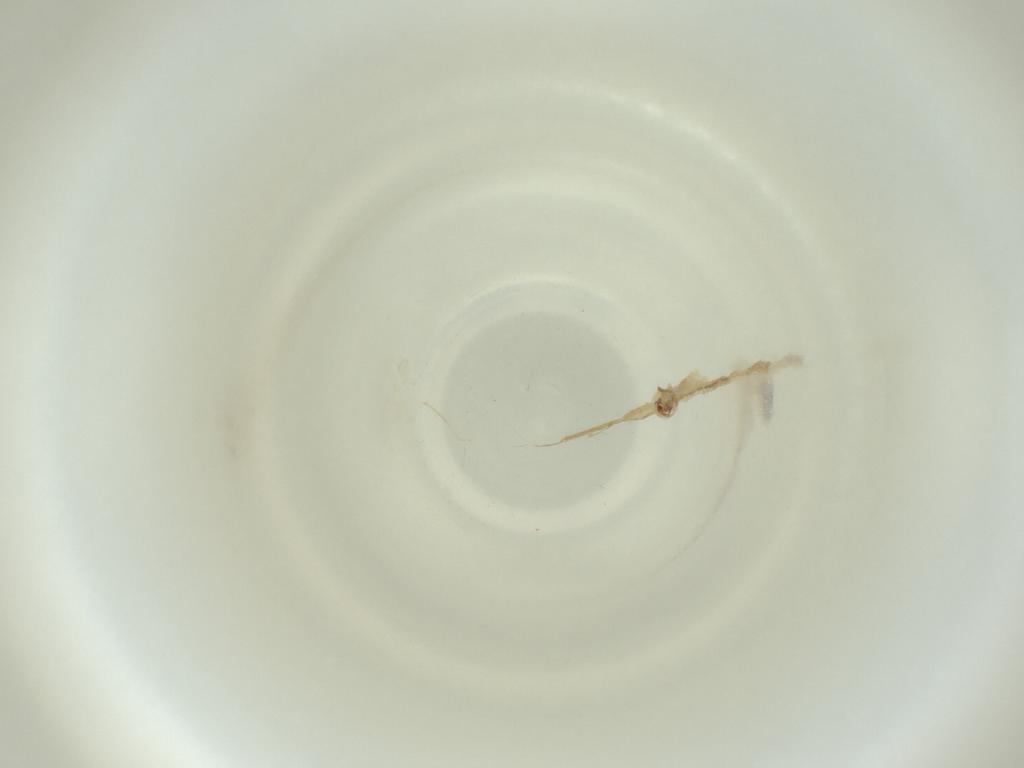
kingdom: Animalia
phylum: Arthropoda
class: Insecta
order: Diptera
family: Cecidomyiidae
